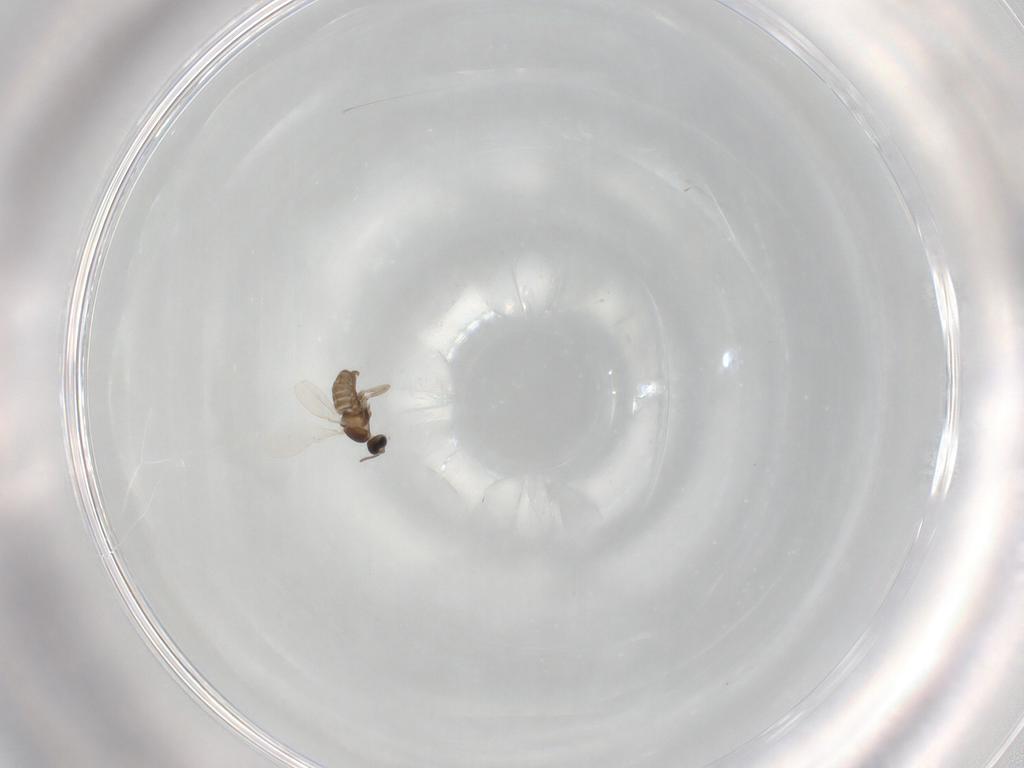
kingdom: Animalia
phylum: Arthropoda
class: Insecta
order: Diptera
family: Cecidomyiidae
